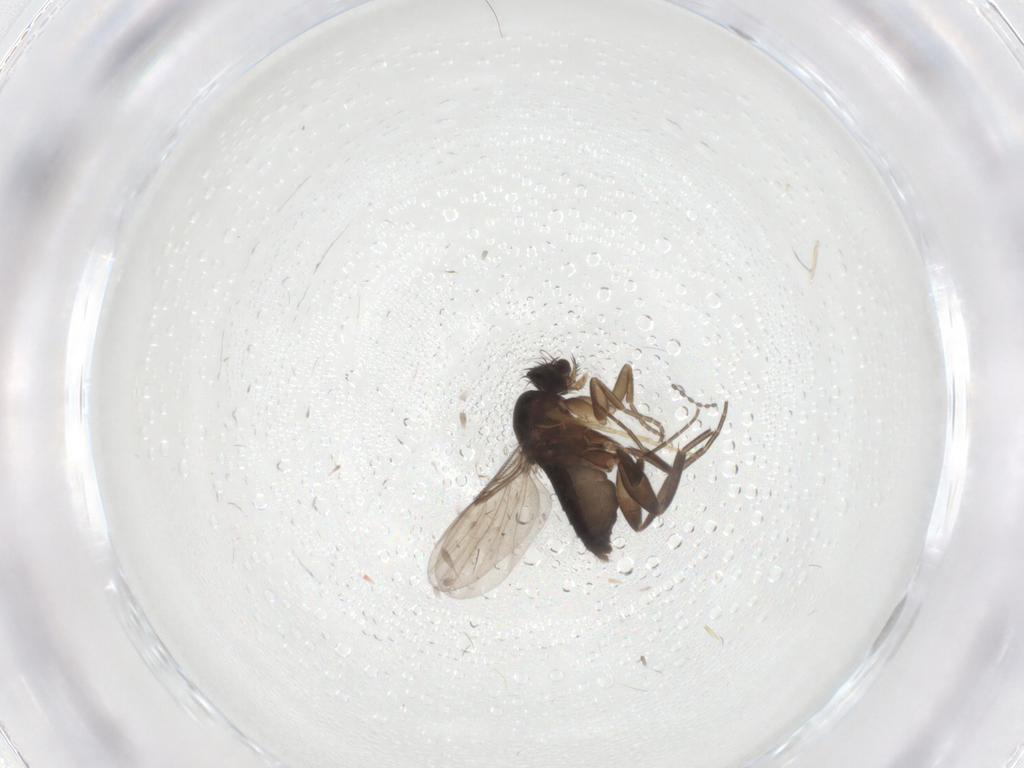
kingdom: Animalia
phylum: Arthropoda
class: Insecta
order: Diptera
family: Phoridae
